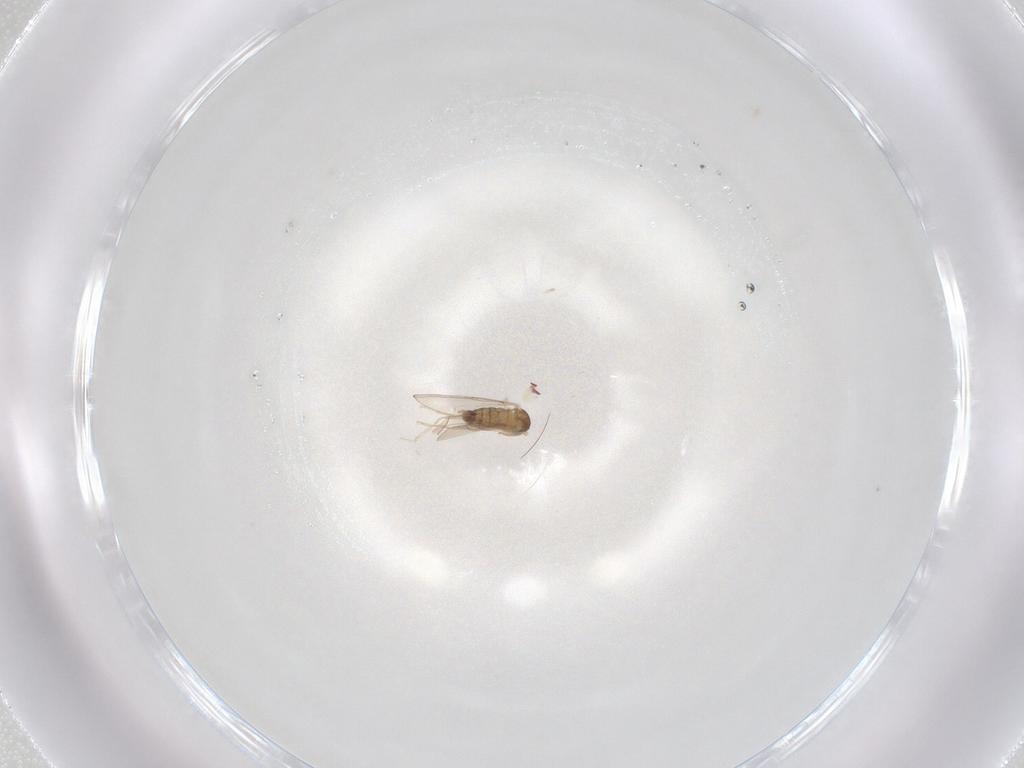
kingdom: Animalia
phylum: Arthropoda
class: Insecta
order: Diptera
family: Cecidomyiidae
